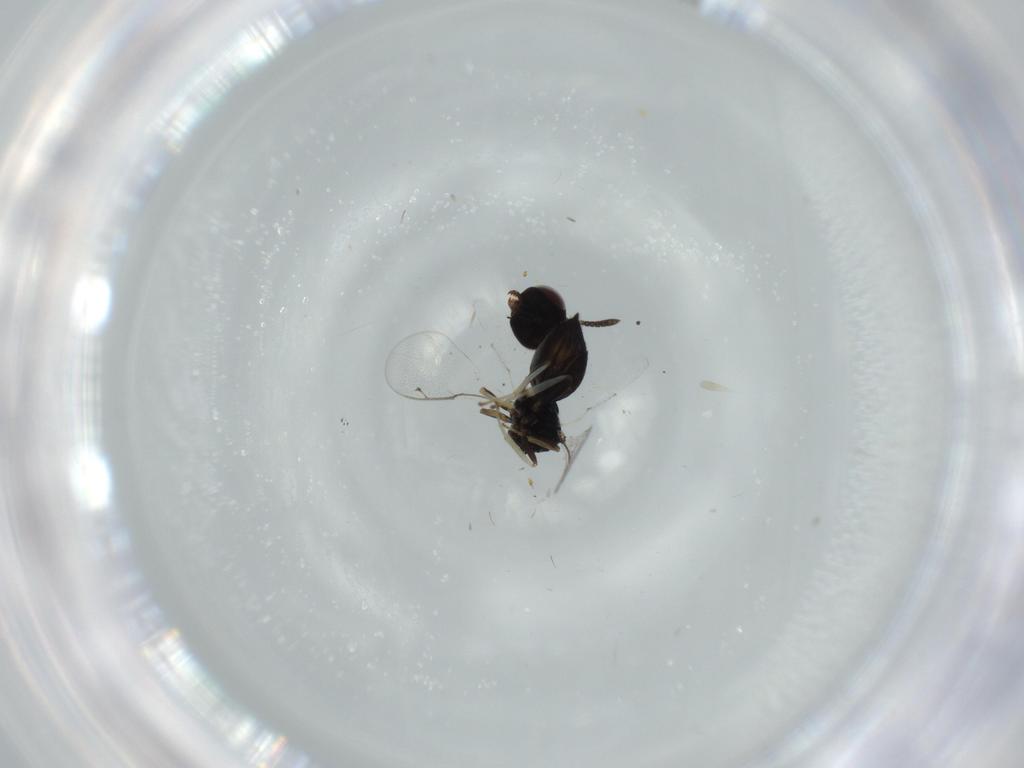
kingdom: Animalia
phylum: Arthropoda
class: Insecta
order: Hymenoptera
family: Pteromalidae
